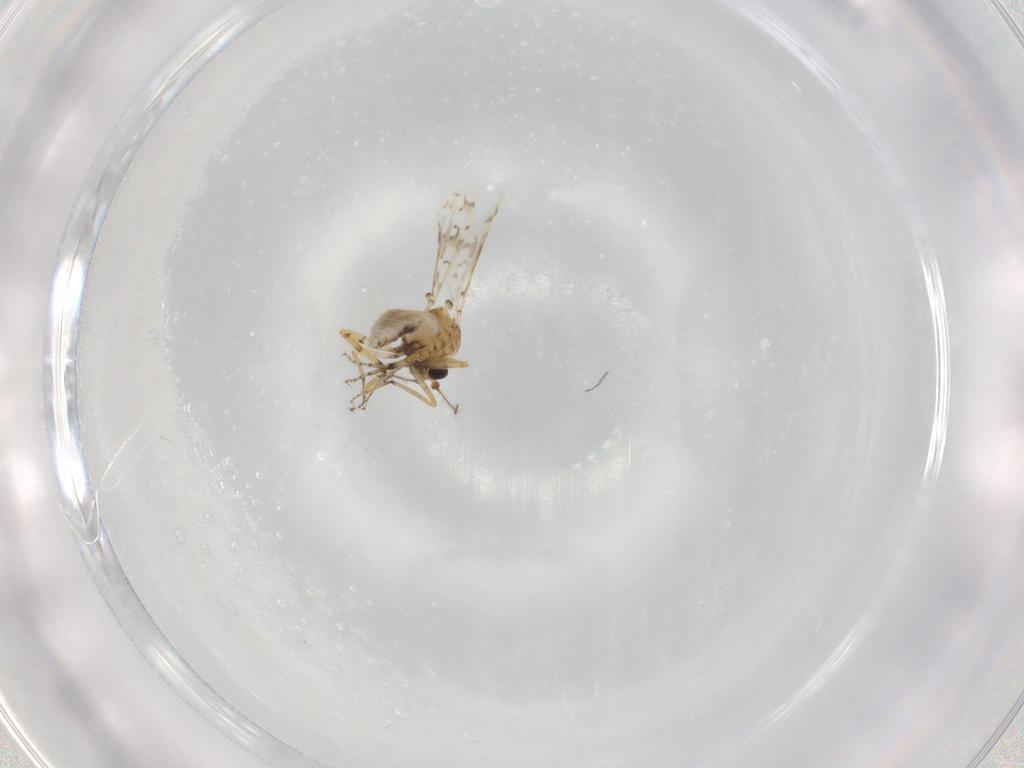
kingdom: Animalia
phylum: Arthropoda
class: Insecta
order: Diptera
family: Ceratopogonidae
